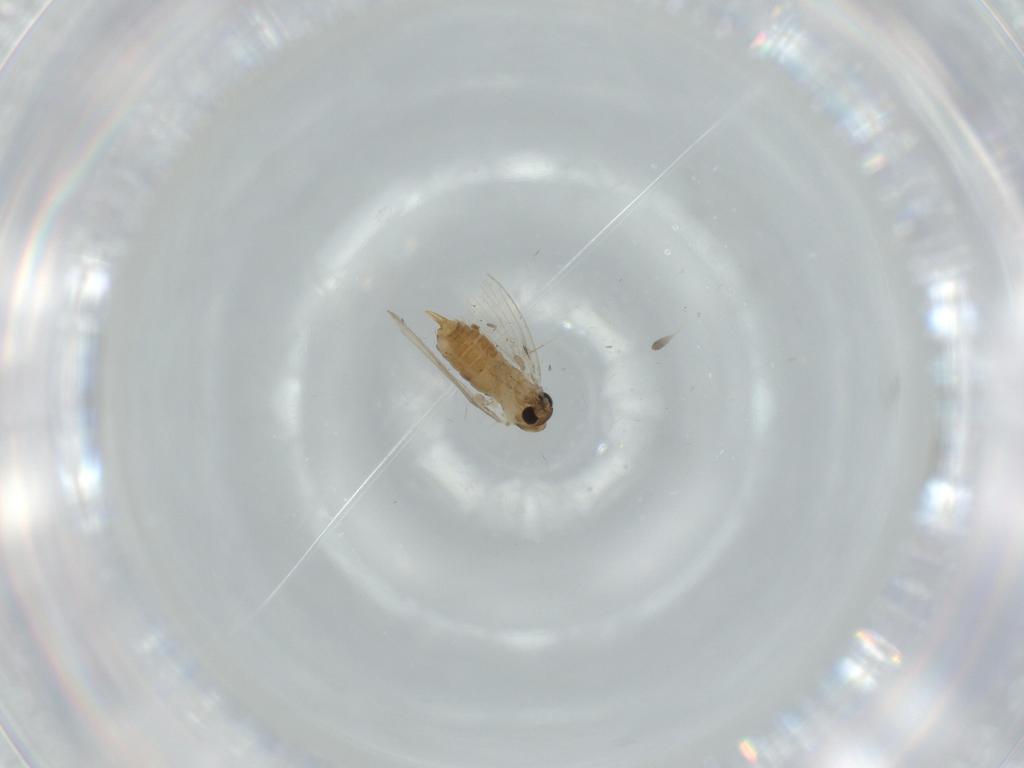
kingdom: Animalia
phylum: Arthropoda
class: Insecta
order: Diptera
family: Psychodidae
